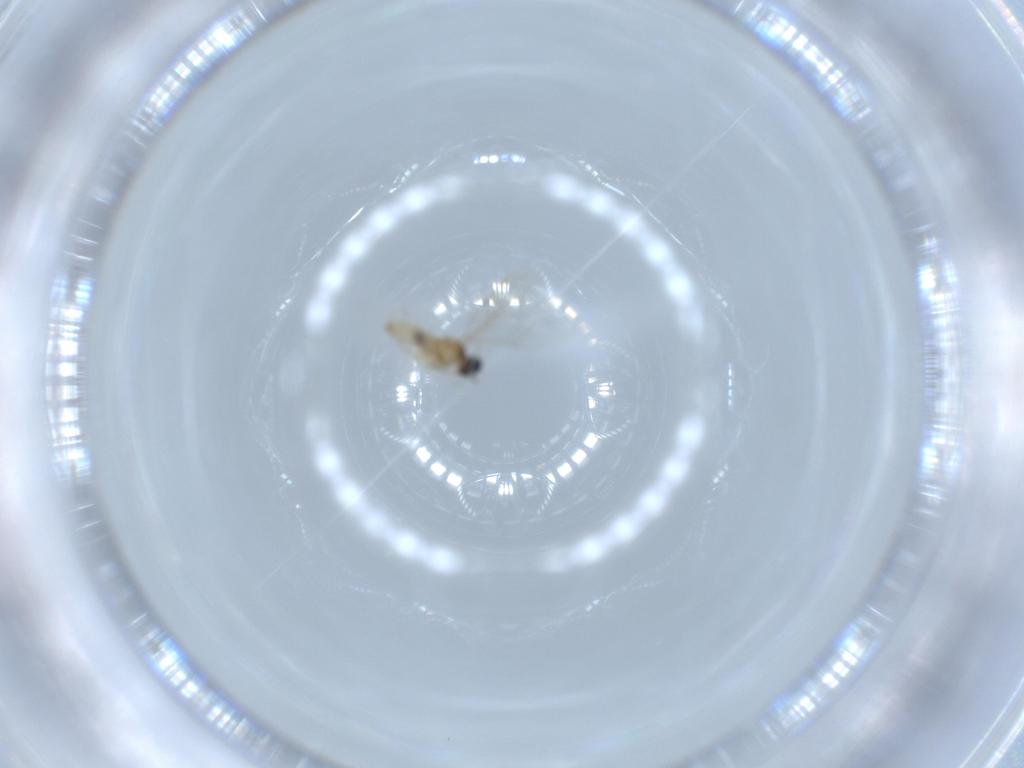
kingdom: Animalia
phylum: Arthropoda
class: Insecta
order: Diptera
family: Cecidomyiidae
